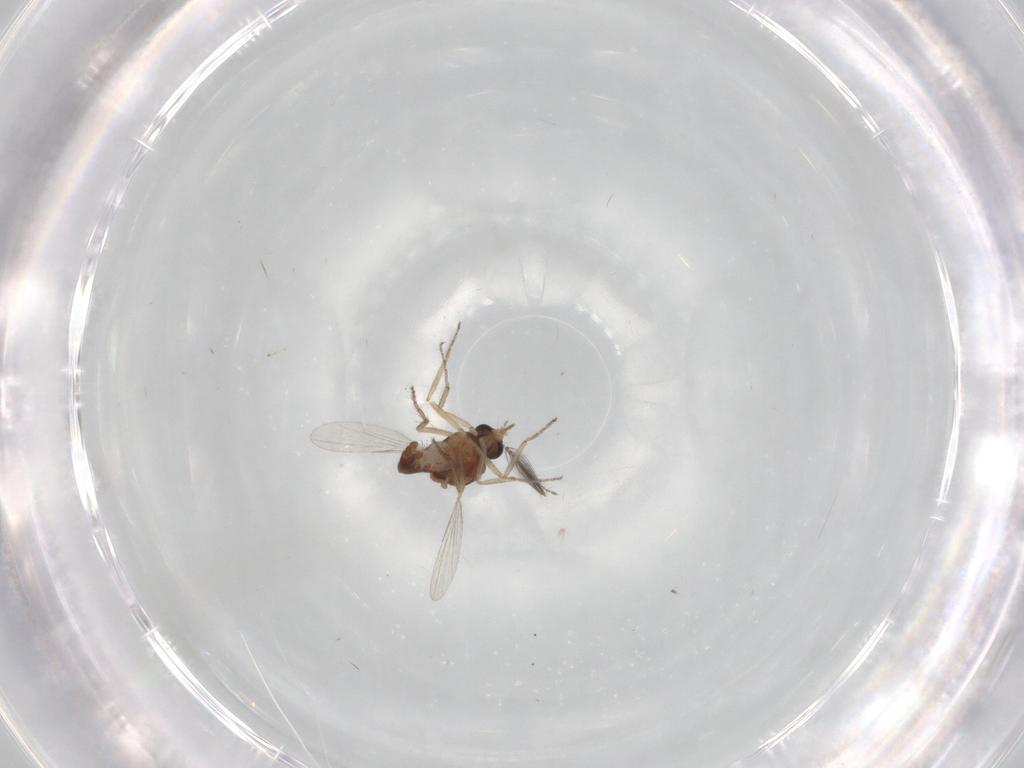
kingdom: Animalia
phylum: Arthropoda
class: Insecta
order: Diptera
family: Ceratopogonidae
